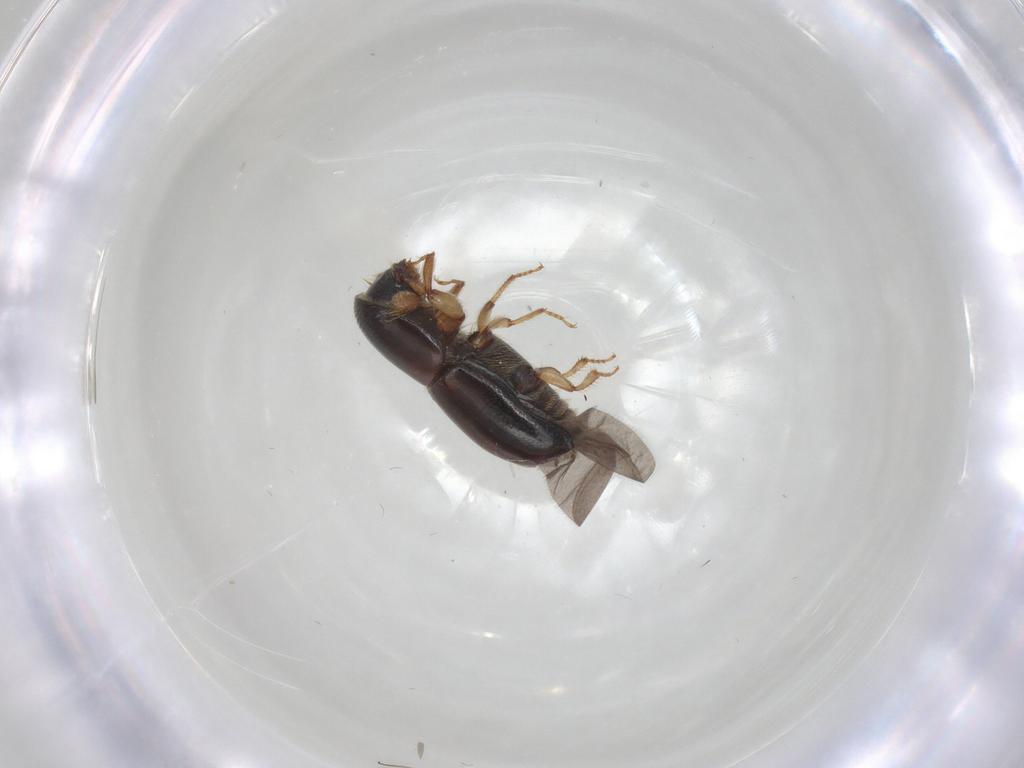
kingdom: Animalia
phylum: Arthropoda
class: Insecta
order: Coleoptera
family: Curculionidae
